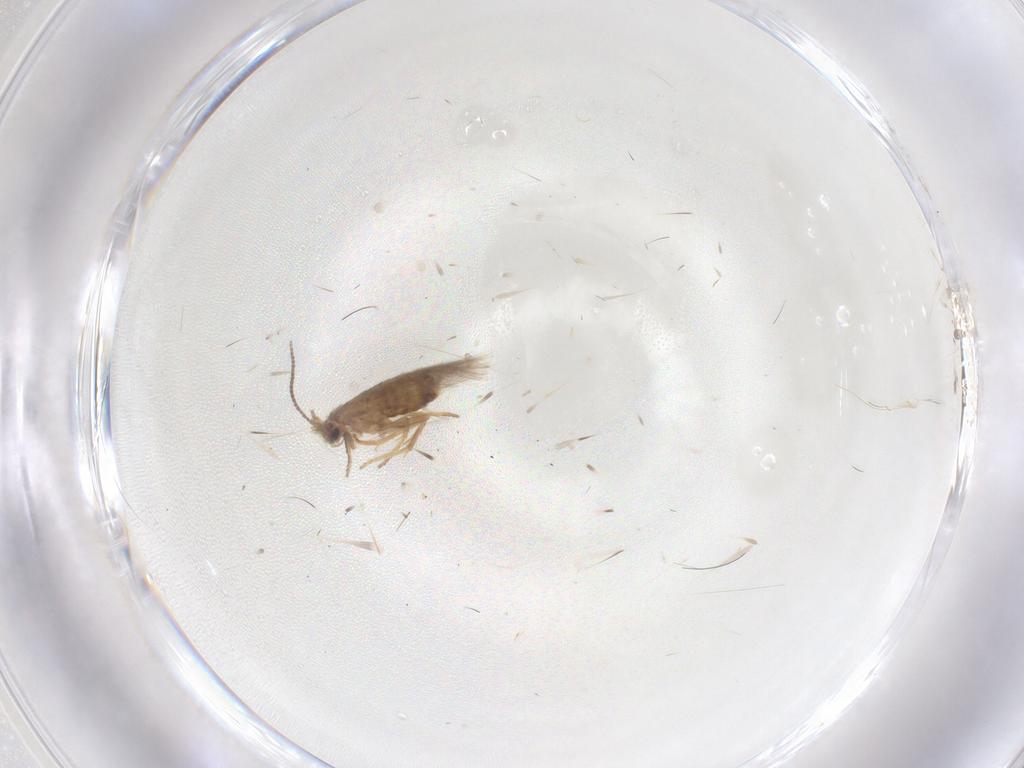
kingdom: Animalia
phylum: Arthropoda
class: Insecta
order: Lepidoptera
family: Nepticulidae
